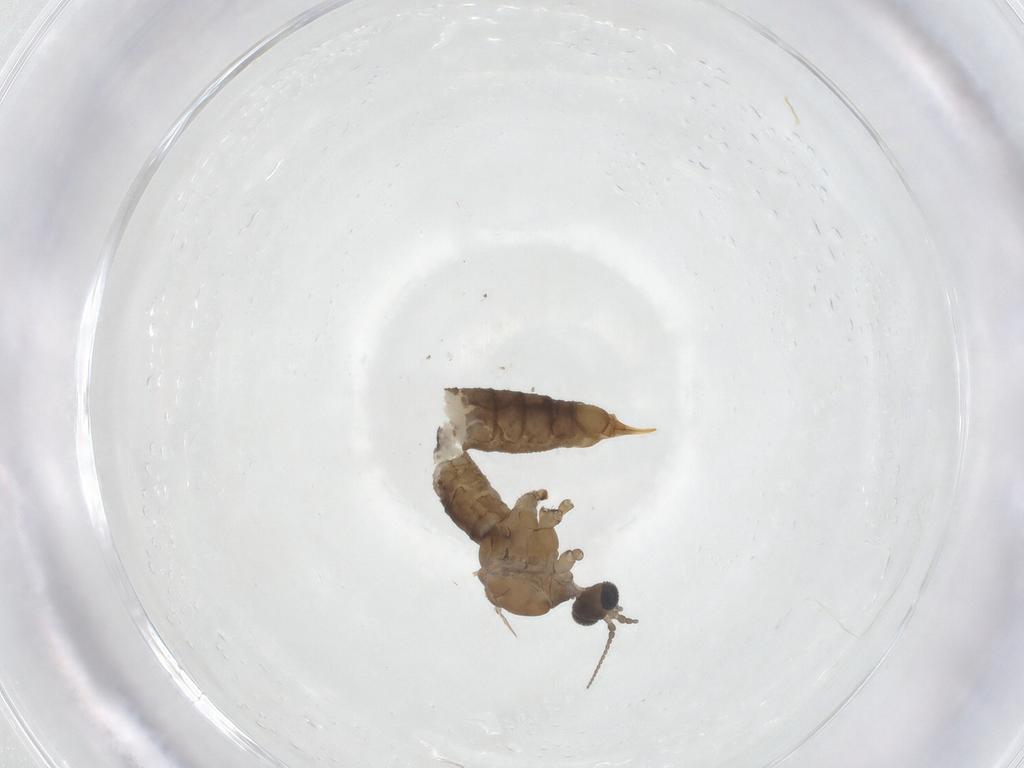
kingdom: Animalia
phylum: Arthropoda
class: Insecta
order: Diptera
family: Limoniidae
